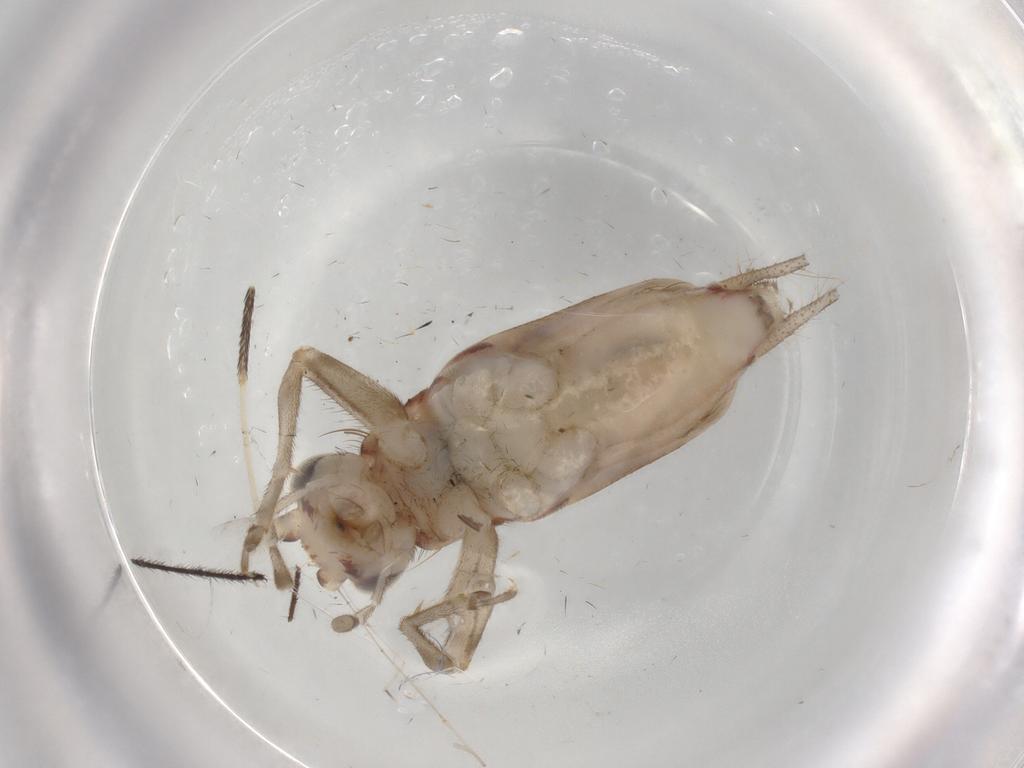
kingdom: Animalia
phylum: Arthropoda
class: Insecta
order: Orthoptera
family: Trigonidiidae
